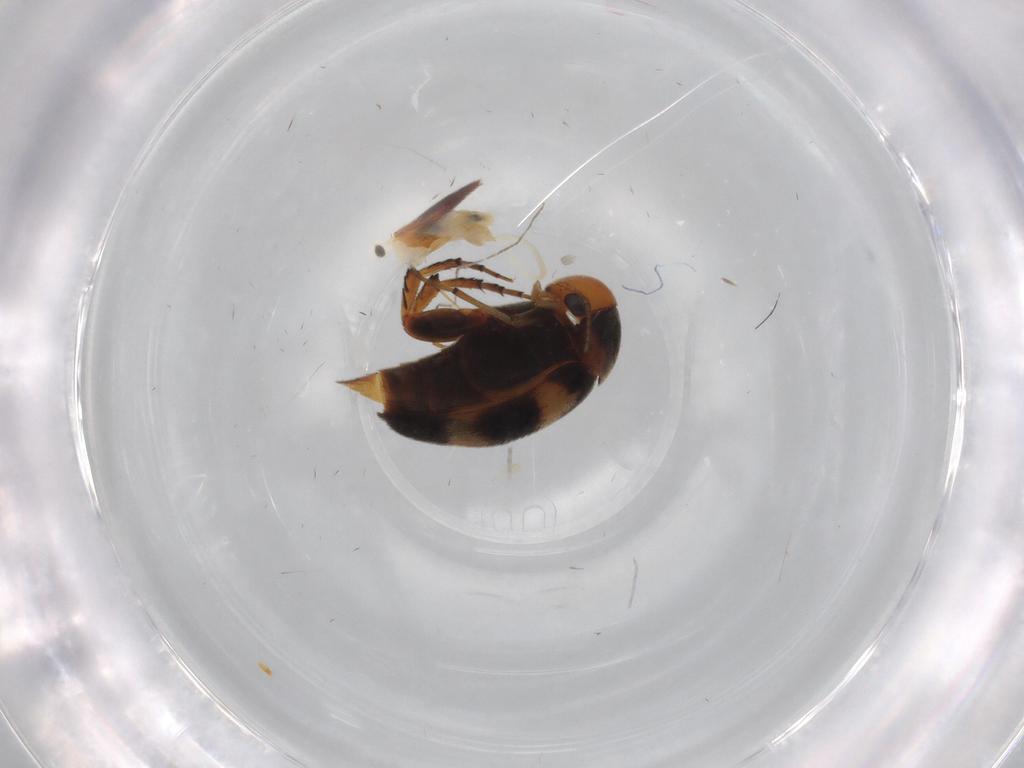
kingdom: Animalia
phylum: Arthropoda
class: Insecta
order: Coleoptera
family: Mordellidae
